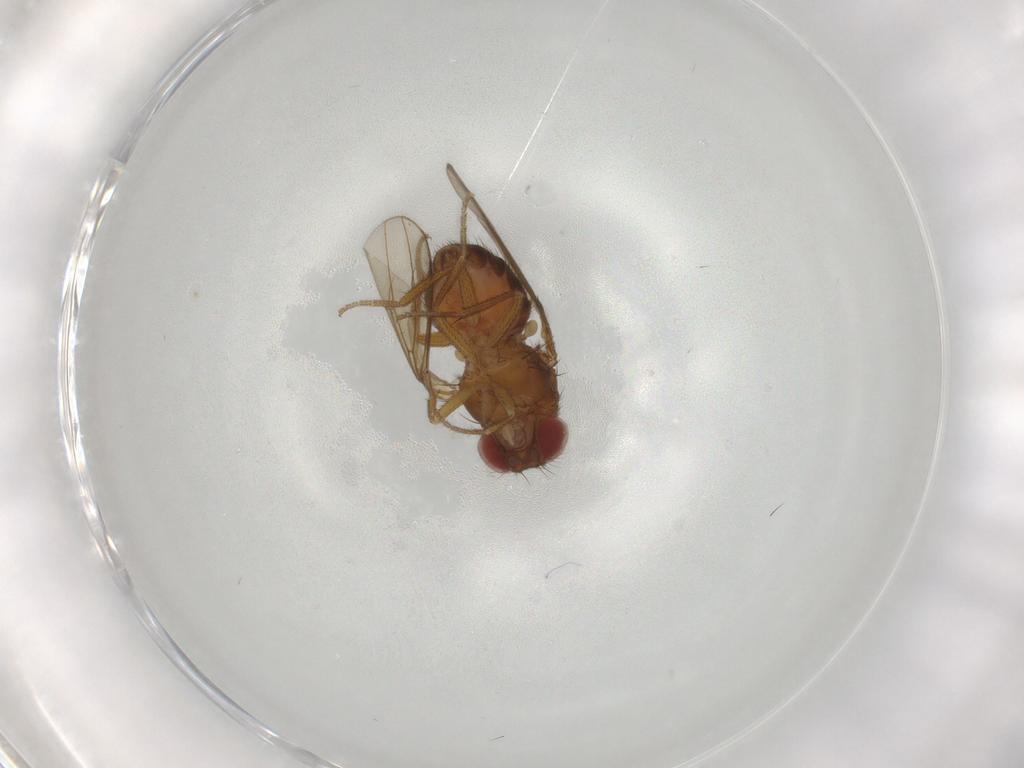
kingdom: Animalia
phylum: Arthropoda
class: Insecta
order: Diptera
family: Drosophilidae
